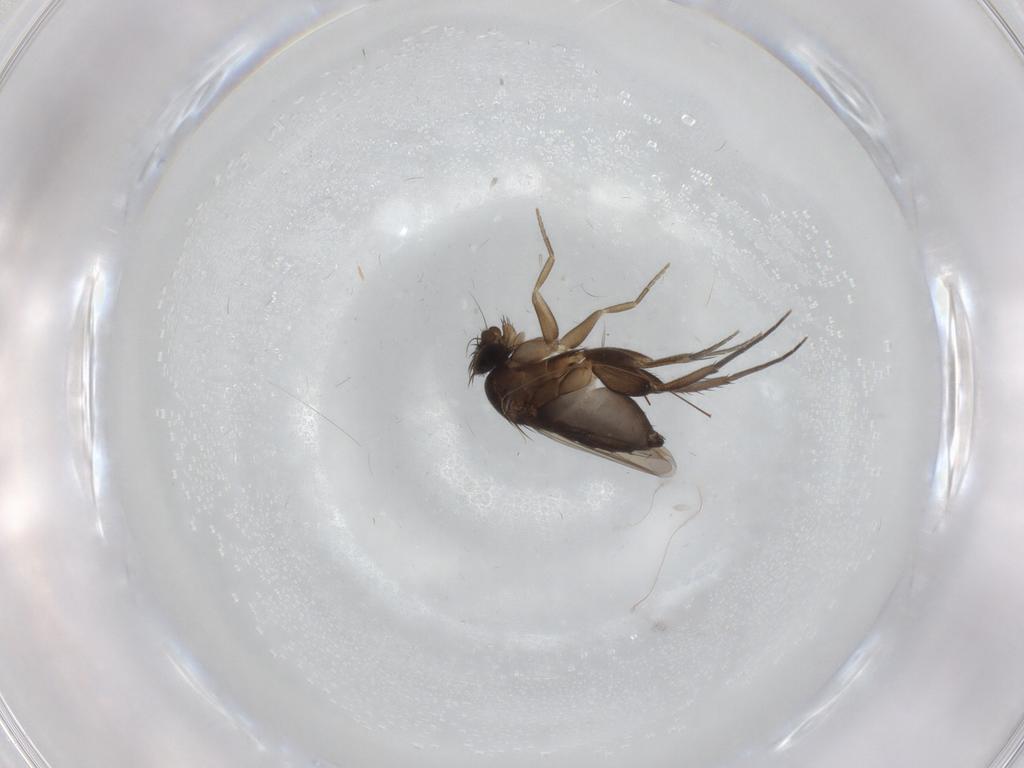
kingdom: Animalia
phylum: Arthropoda
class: Insecta
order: Diptera
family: Phoridae
